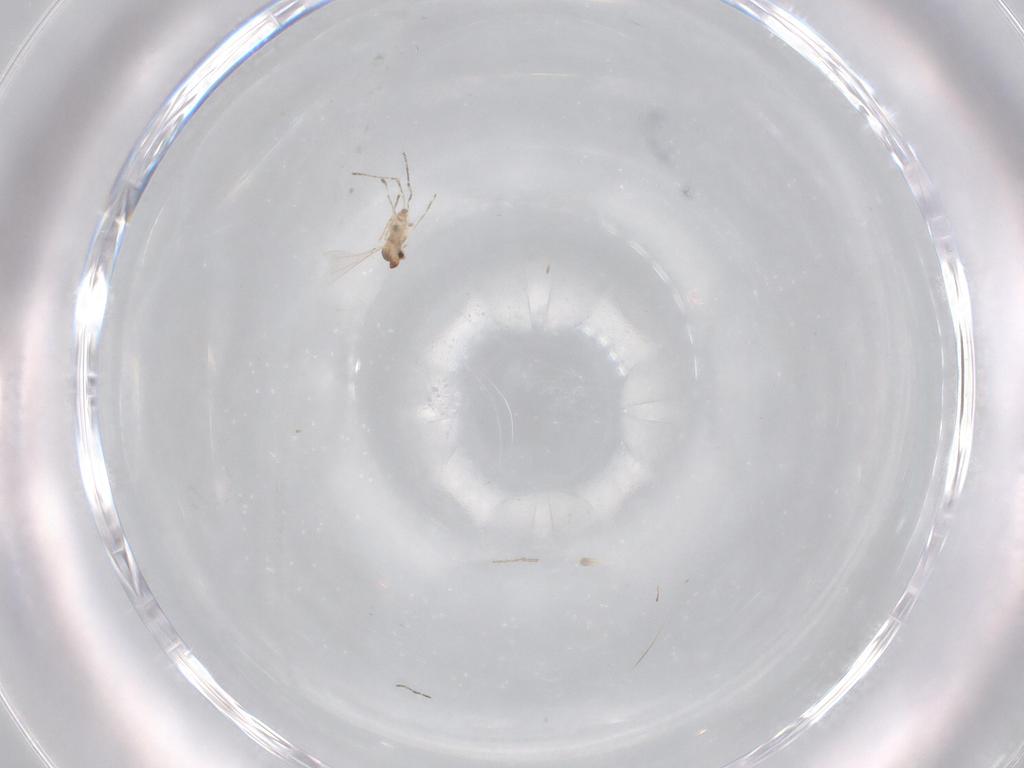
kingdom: Animalia
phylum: Arthropoda
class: Insecta
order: Diptera
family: Cecidomyiidae
